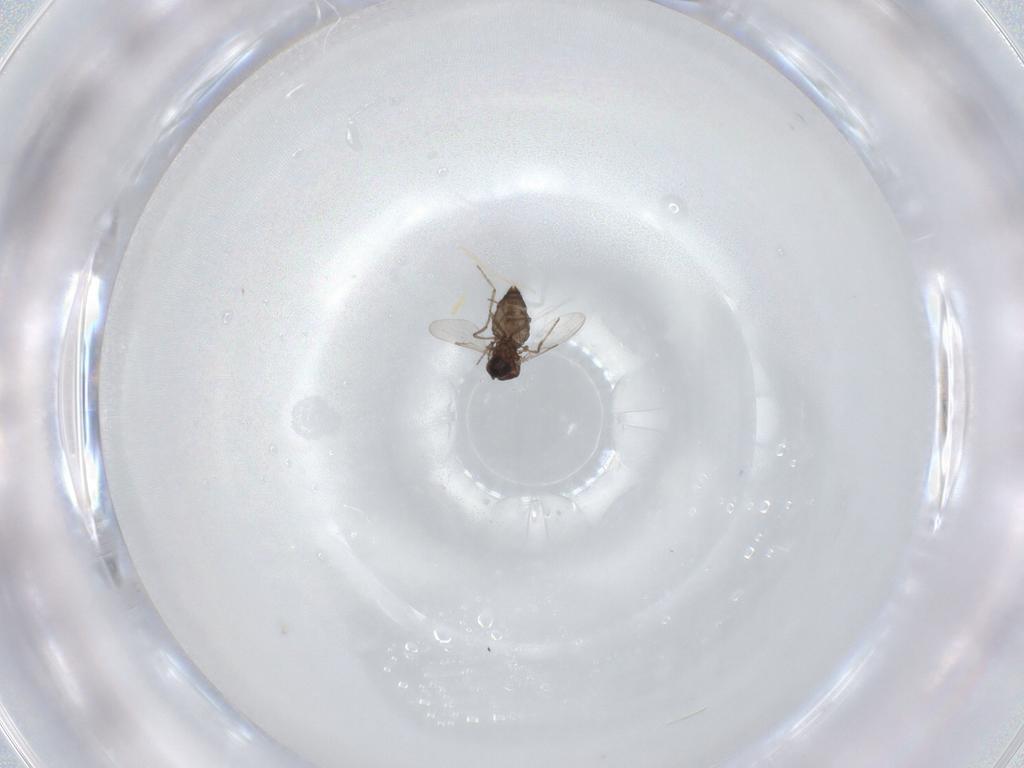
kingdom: Animalia
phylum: Arthropoda
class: Insecta
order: Diptera
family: Ceratopogonidae
